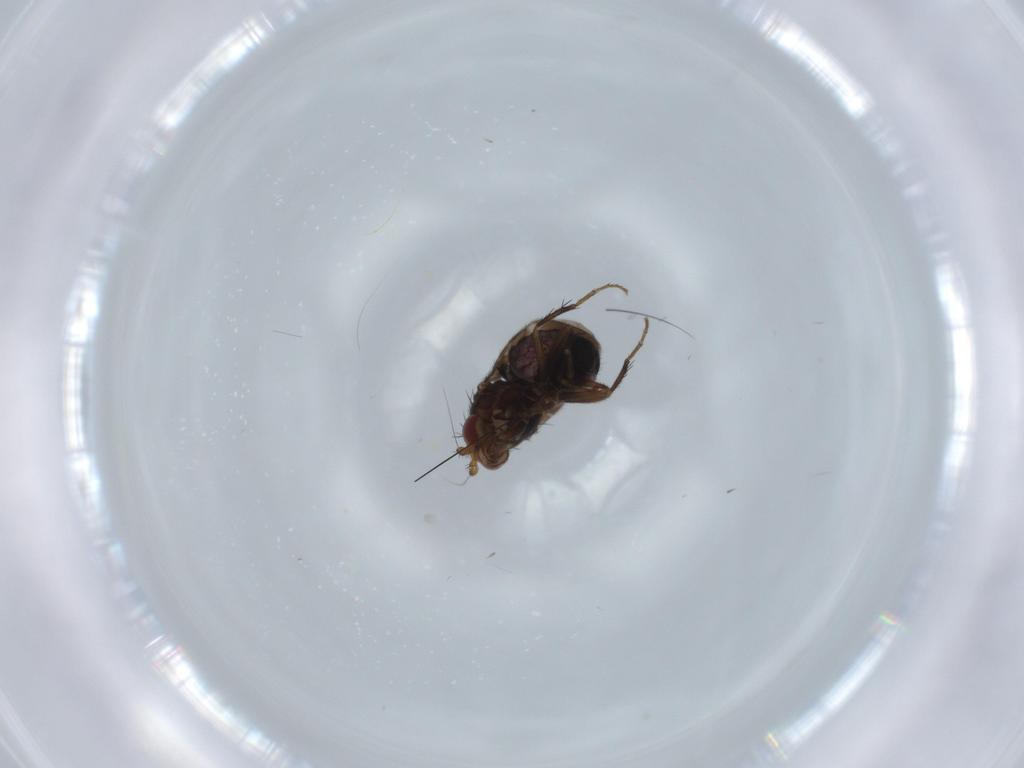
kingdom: Animalia
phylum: Arthropoda
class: Insecta
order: Diptera
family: Sphaeroceridae
